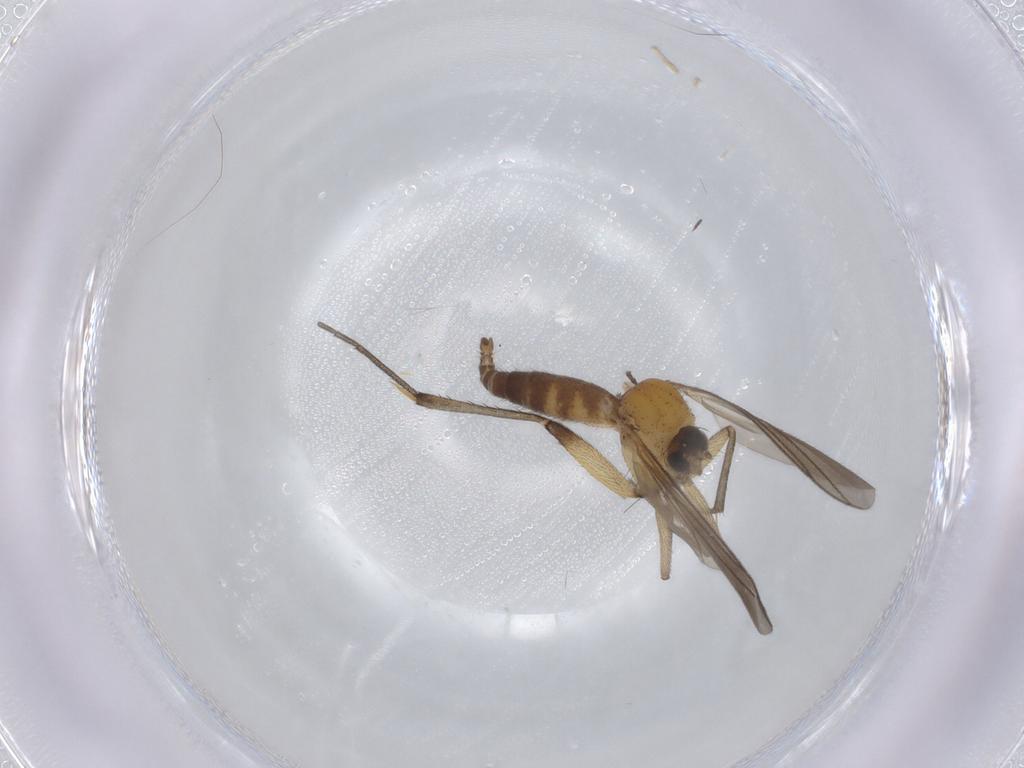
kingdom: Animalia
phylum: Arthropoda
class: Insecta
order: Diptera
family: Mycetophilidae
